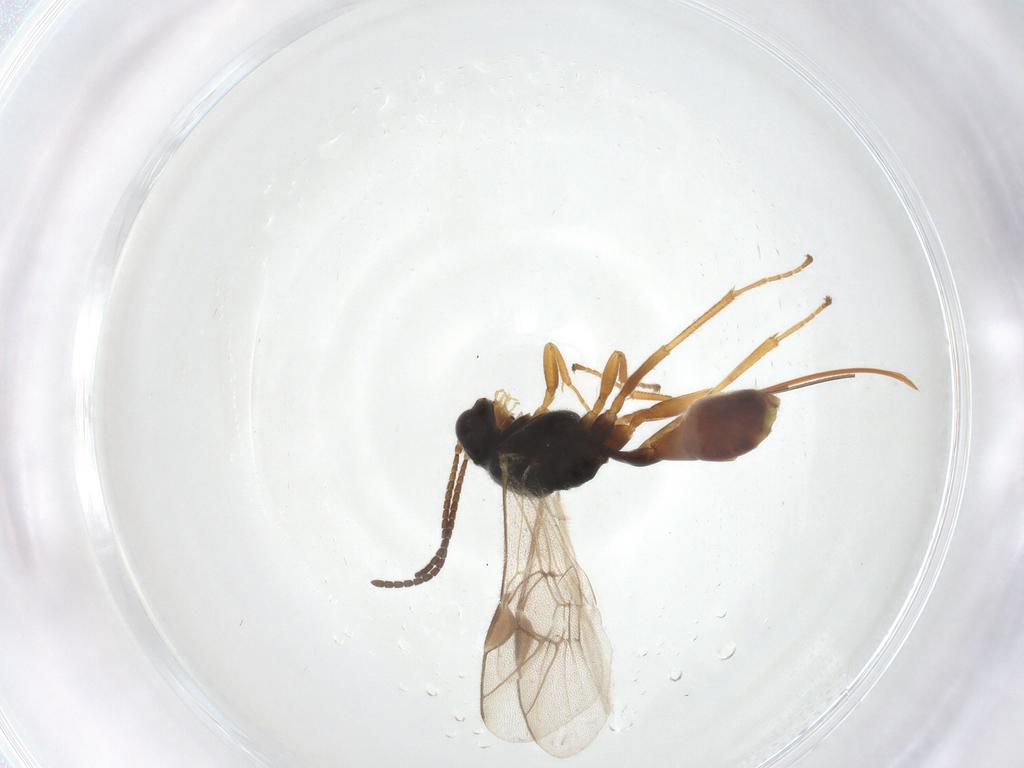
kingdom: Animalia
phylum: Arthropoda
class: Insecta
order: Hymenoptera
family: Ichneumonidae
